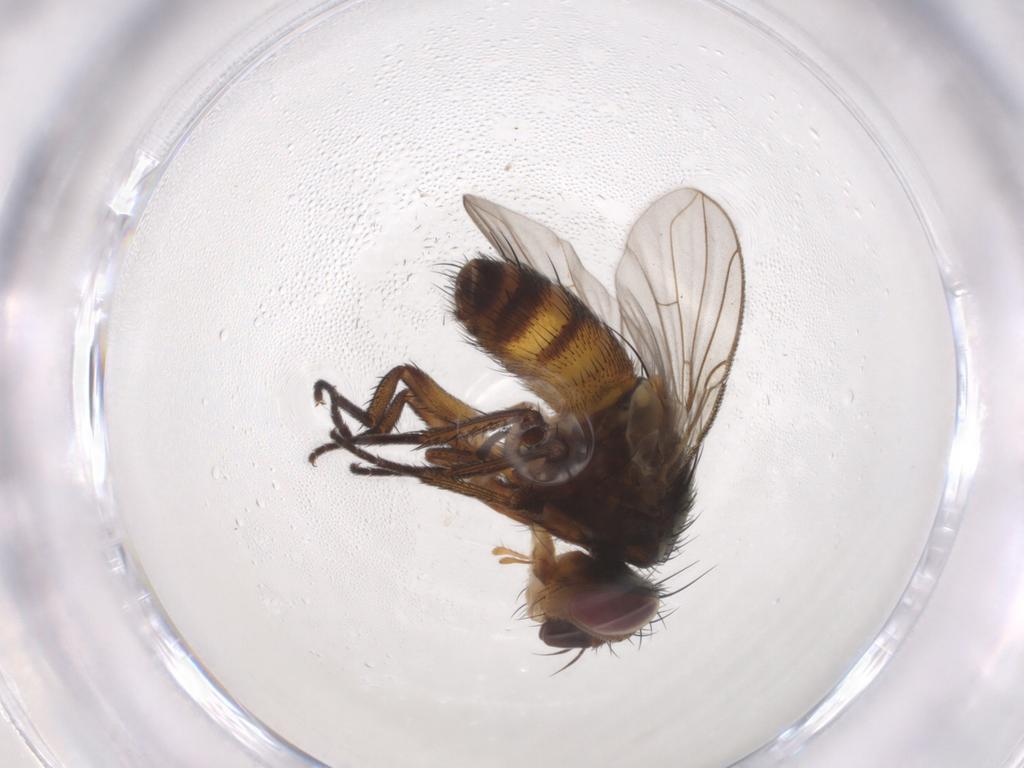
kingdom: Animalia
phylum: Arthropoda
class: Insecta
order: Diptera
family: Tachinidae
